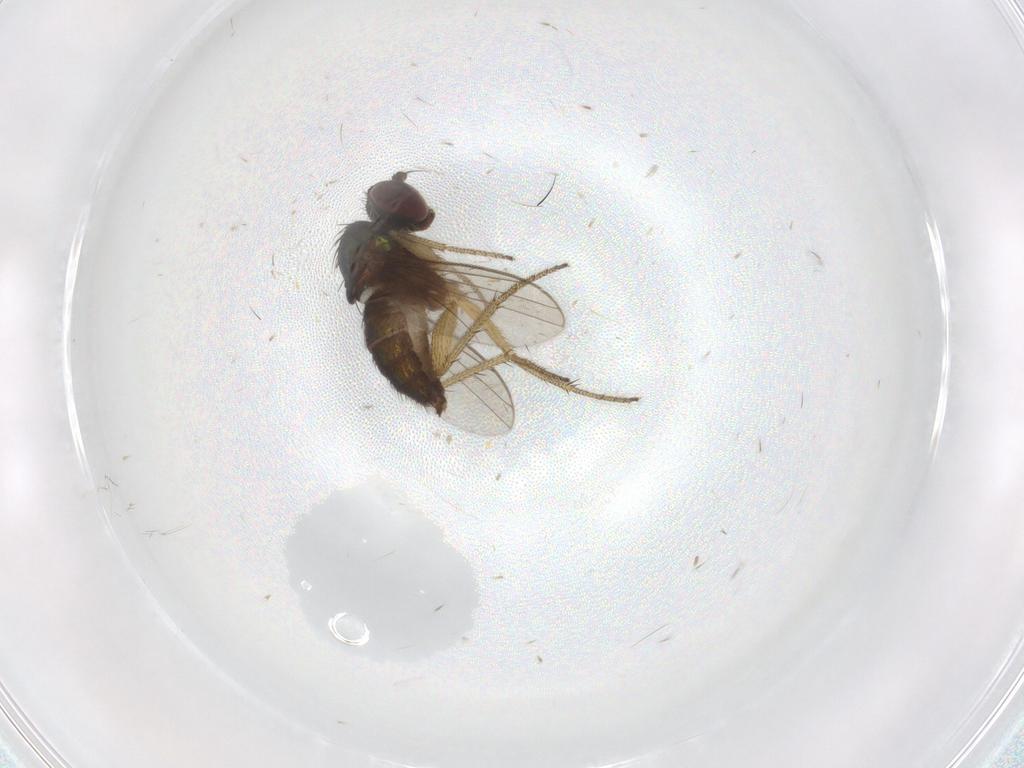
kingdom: Animalia
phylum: Arthropoda
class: Insecta
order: Diptera
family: Dolichopodidae
